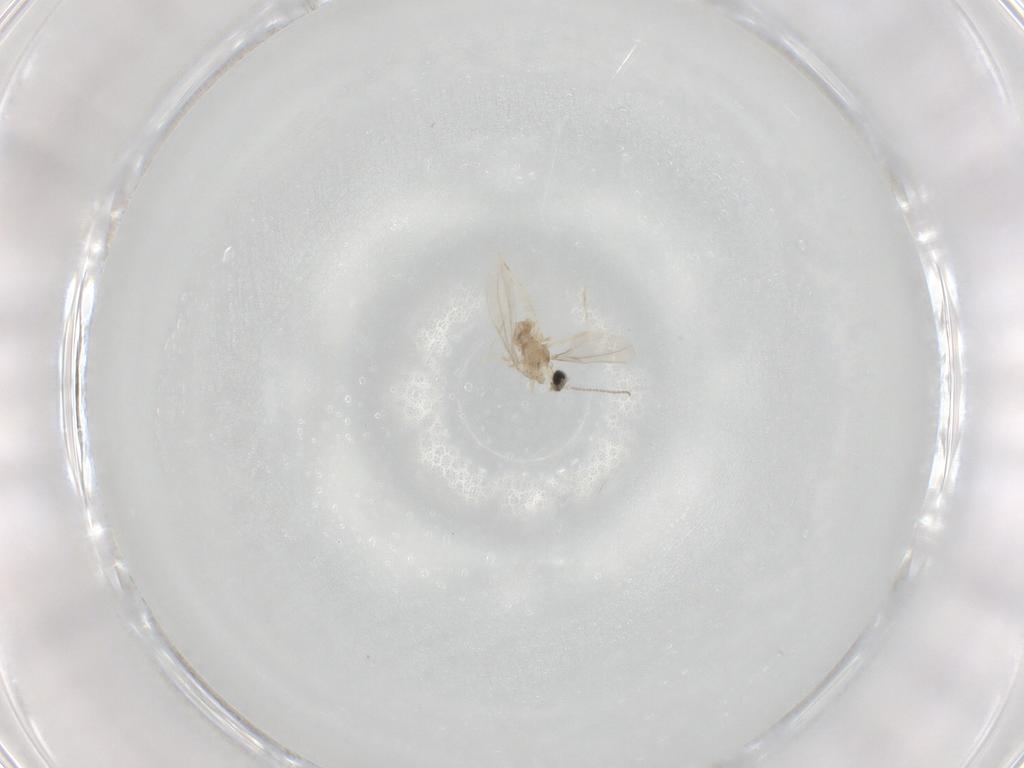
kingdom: Animalia
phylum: Arthropoda
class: Insecta
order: Diptera
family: Cecidomyiidae
